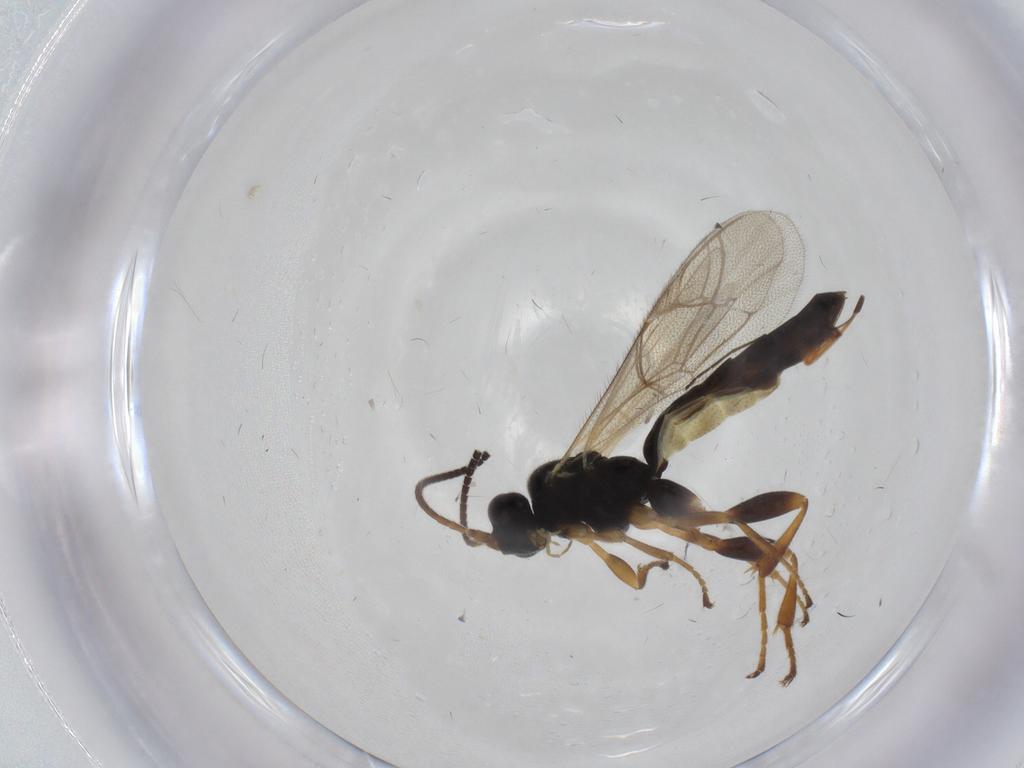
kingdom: Animalia
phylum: Arthropoda
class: Insecta
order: Hymenoptera
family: Ichneumonidae
